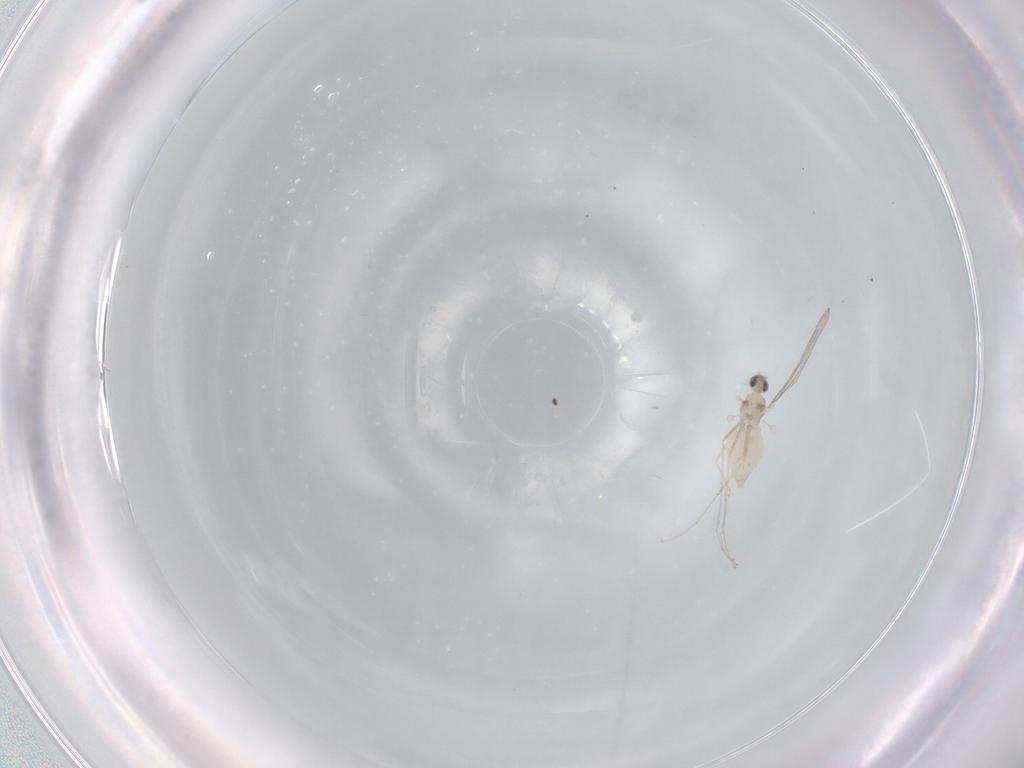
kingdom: Animalia
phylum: Arthropoda
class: Insecta
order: Diptera
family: Cecidomyiidae
